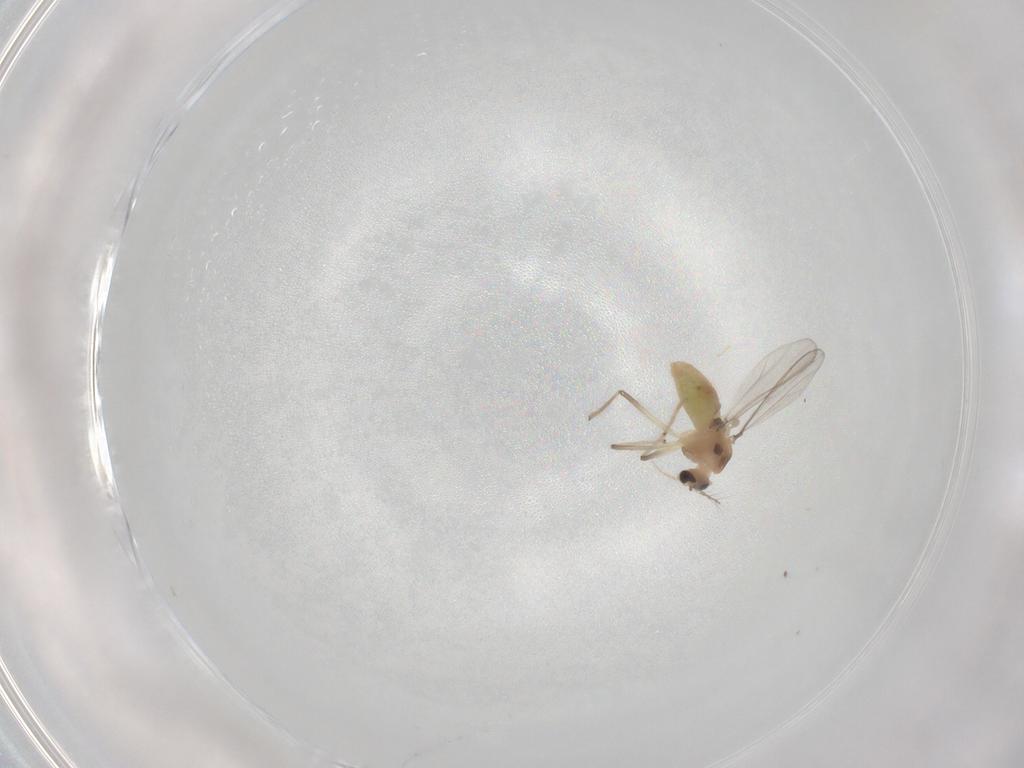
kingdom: Animalia
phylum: Arthropoda
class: Insecta
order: Diptera
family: Chironomidae
